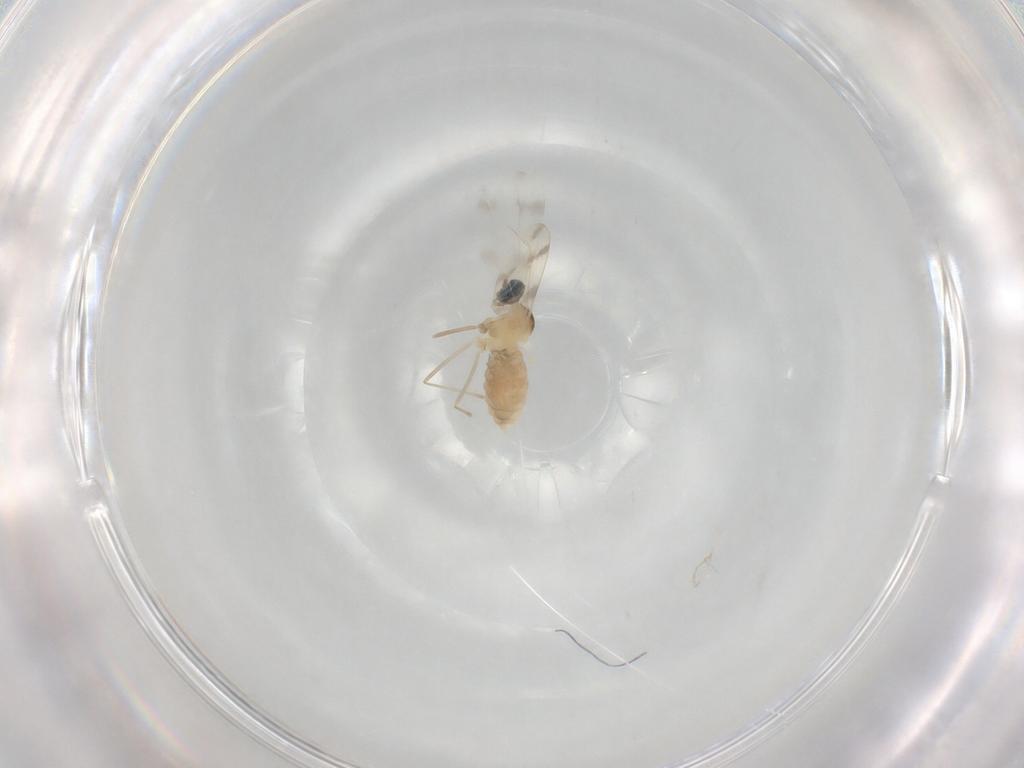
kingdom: Animalia
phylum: Arthropoda
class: Insecta
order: Diptera
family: Cecidomyiidae
